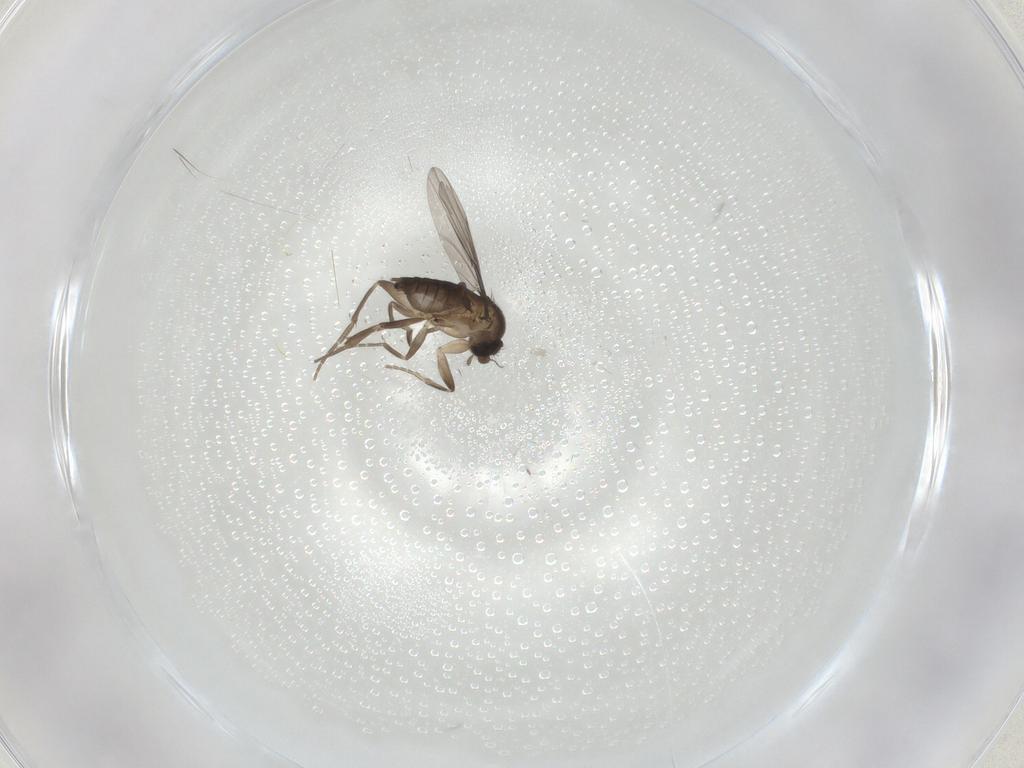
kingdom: Animalia
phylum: Arthropoda
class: Insecta
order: Diptera
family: Phoridae
